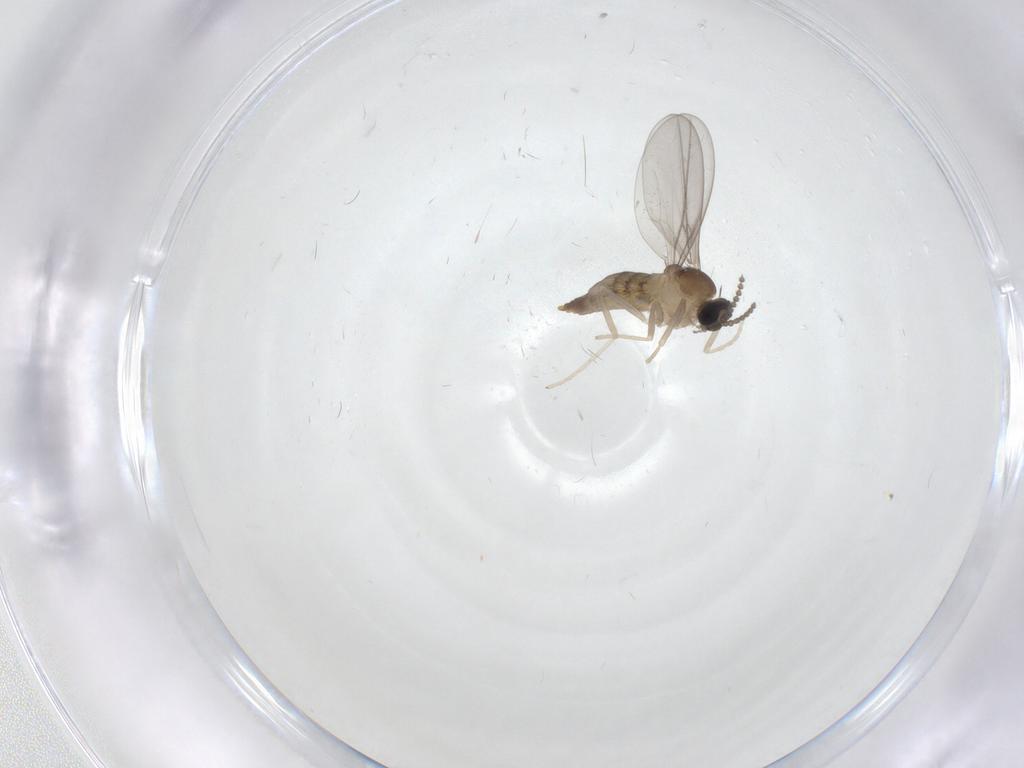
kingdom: Animalia
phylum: Arthropoda
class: Insecta
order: Diptera
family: Cecidomyiidae
